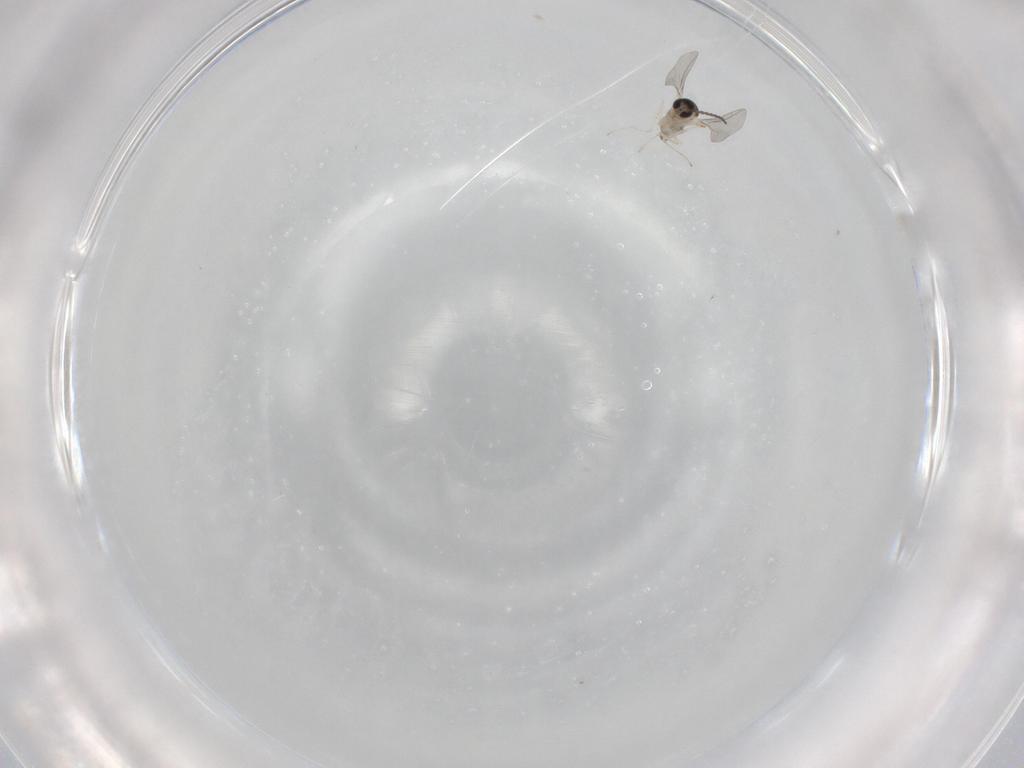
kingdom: Animalia
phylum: Arthropoda
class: Insecta
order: Diptera
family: Cecidomyiidae
